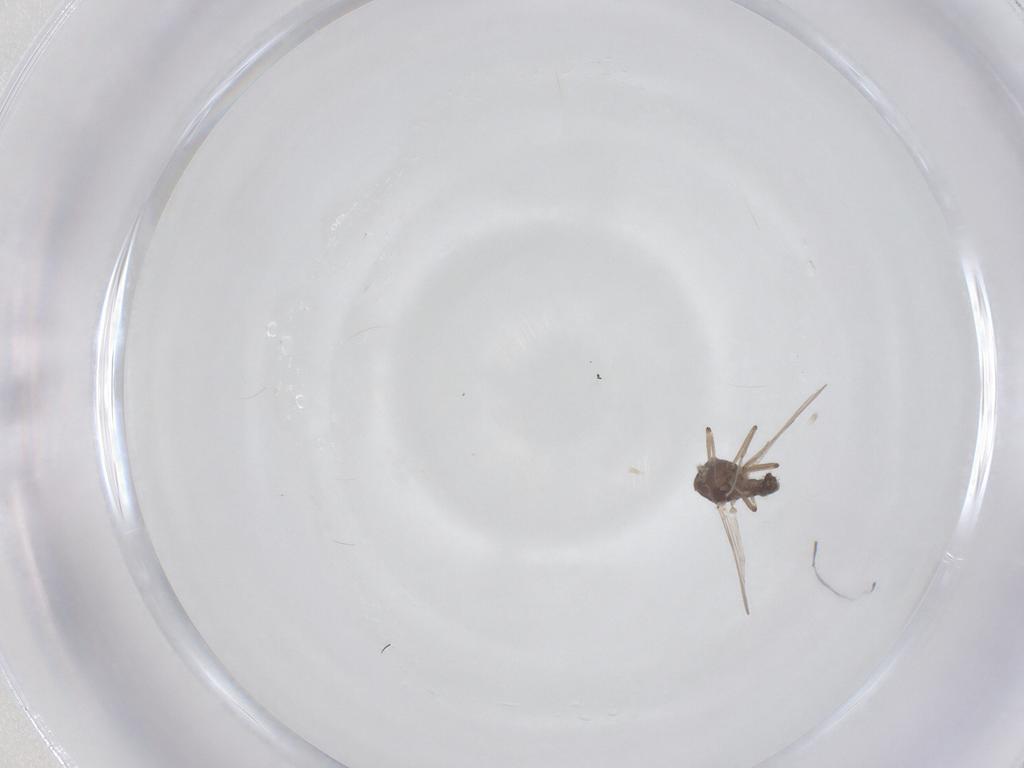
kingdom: Animalia
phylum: Arthropoda
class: Insecta
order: Diptera
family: Ceratopogonidae
